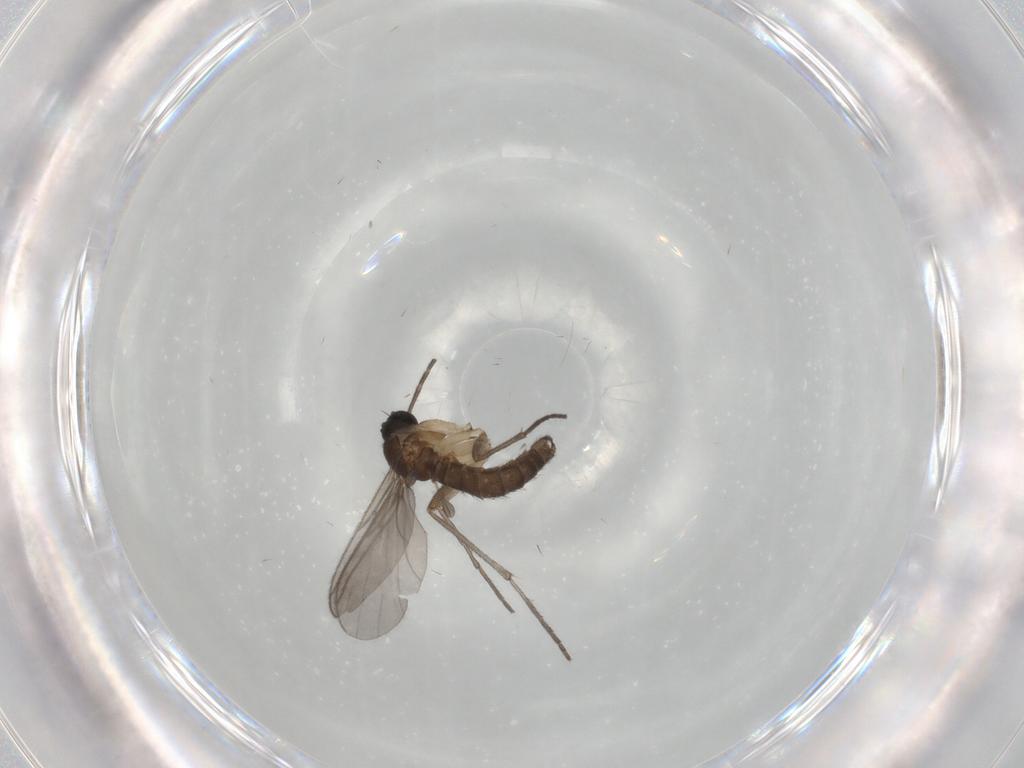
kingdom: Animalia
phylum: Arthropoda
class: Insecta
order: Diptera
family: Sciaridae
